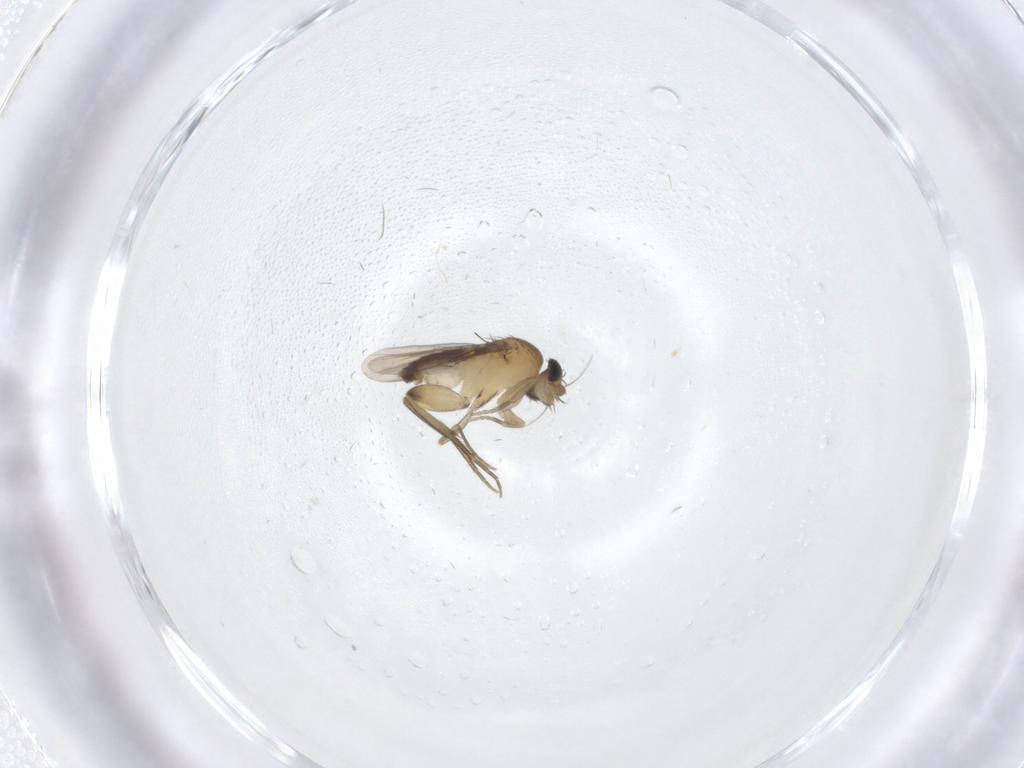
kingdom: Animalia
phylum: Arthropoda
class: Insecta
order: Diptera
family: Phoridae
